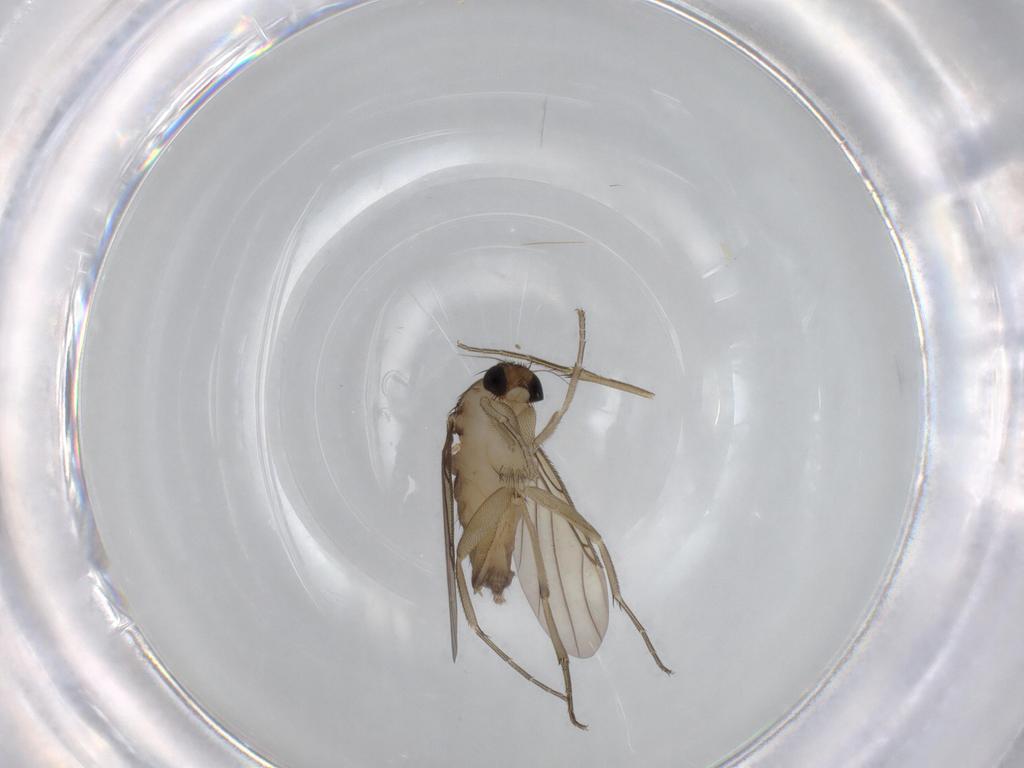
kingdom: Animalia
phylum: Arthropoda
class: Insecta
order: Diptera
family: Phoridae
